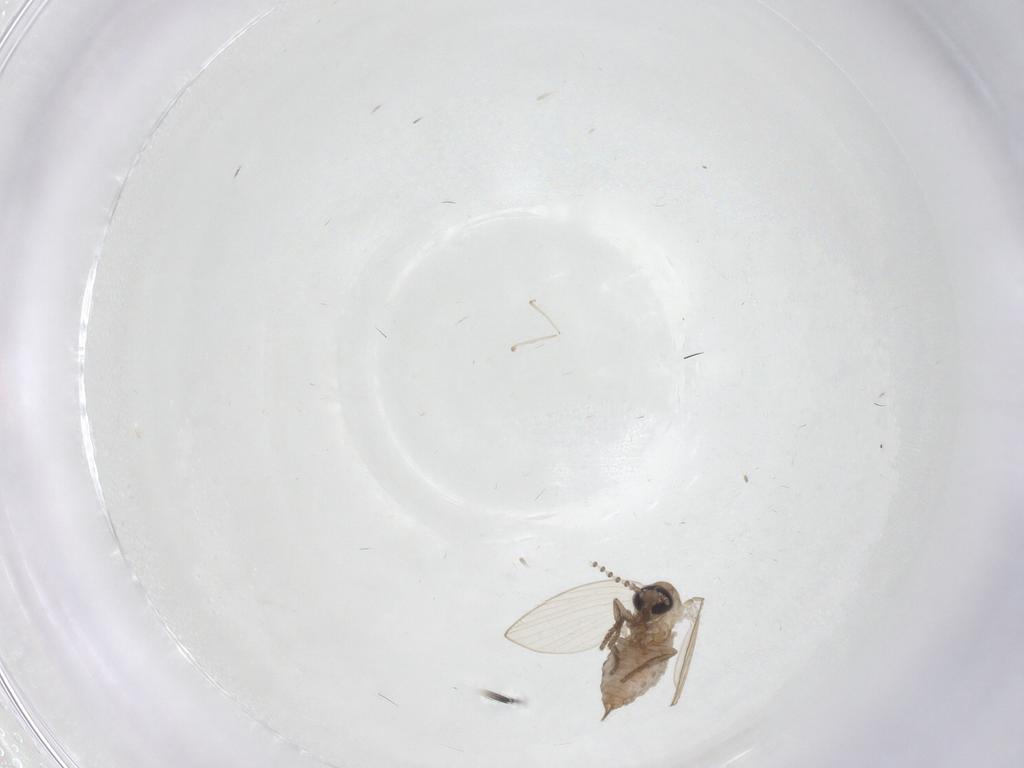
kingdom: Animalia
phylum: Arthropoda
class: Insecta
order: Diptera
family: Psychodidae
